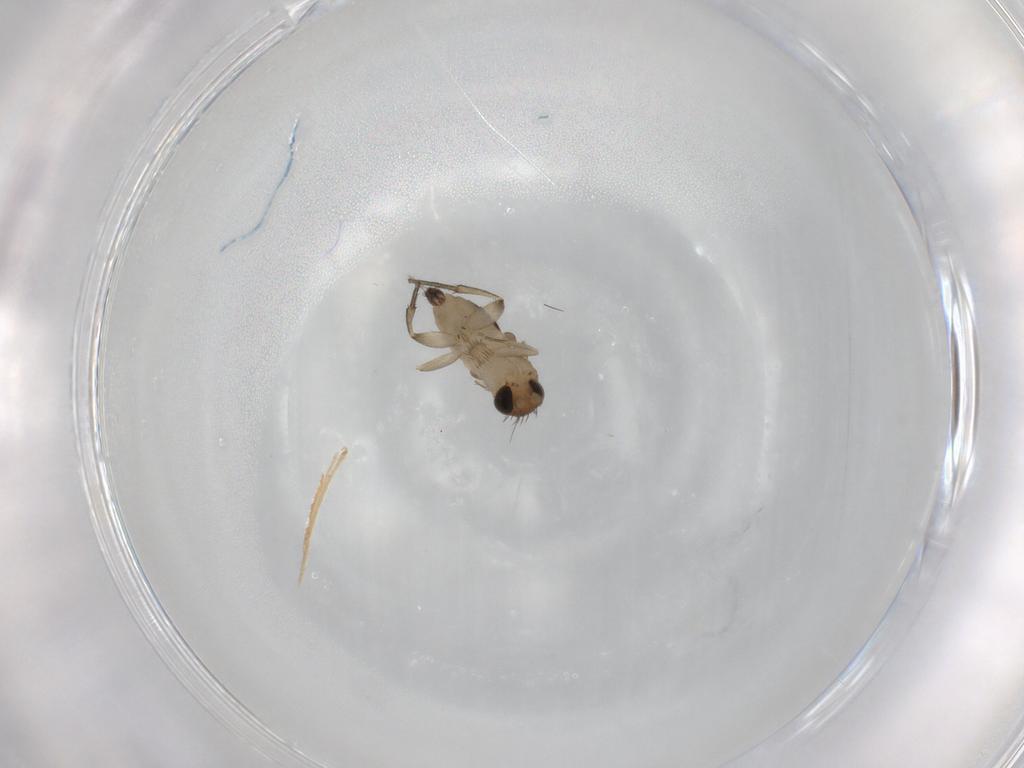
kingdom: Animalia
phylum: Arthropoda
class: Insecta
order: Diptera
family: Phoridae
